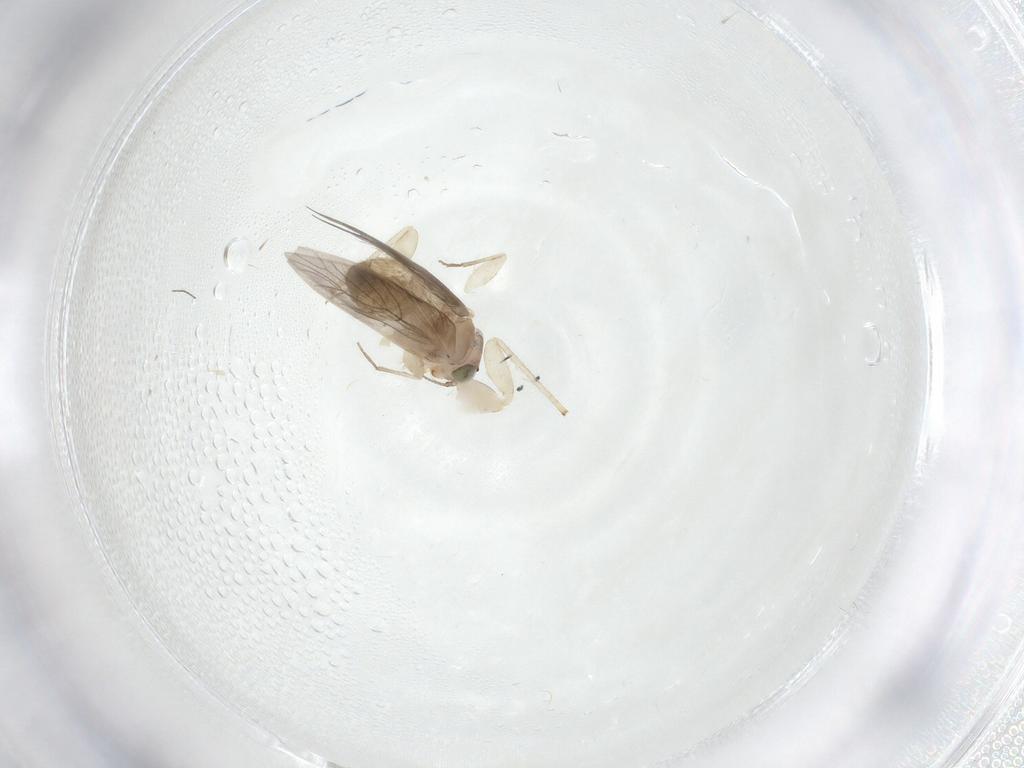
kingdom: Animalia
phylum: Arthropoda
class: Insecta
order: Psocodea
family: Lepidopsocidae
